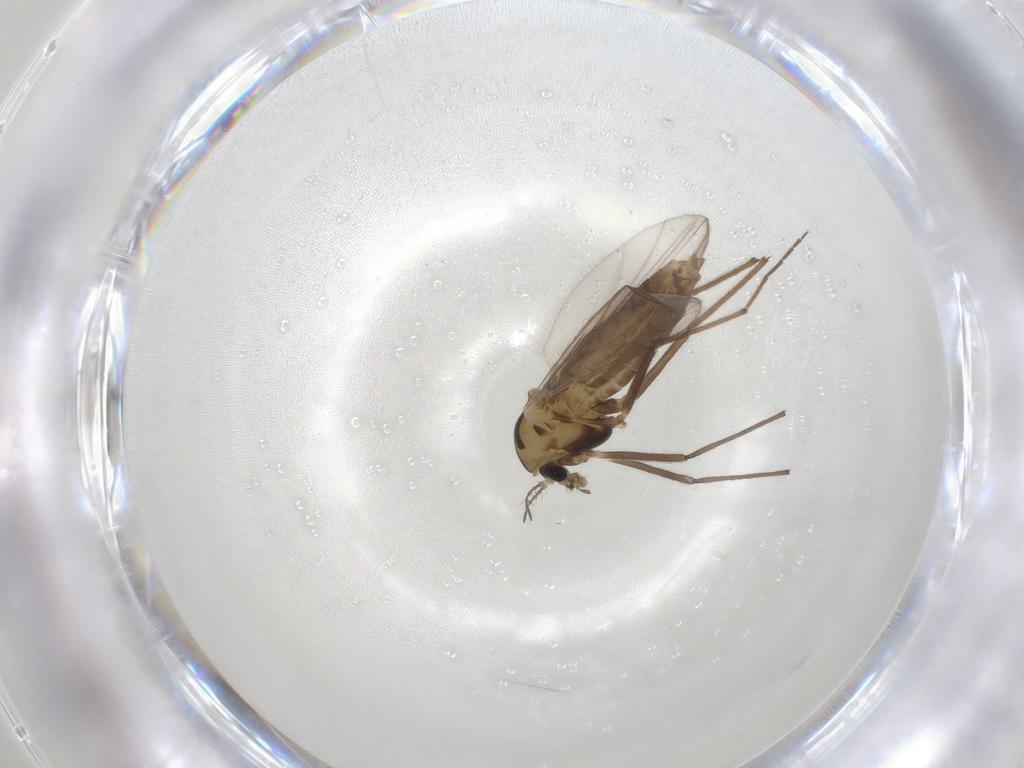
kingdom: Animalia
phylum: Arthropoda
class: Insecta
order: Diptera
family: Chironomidae
